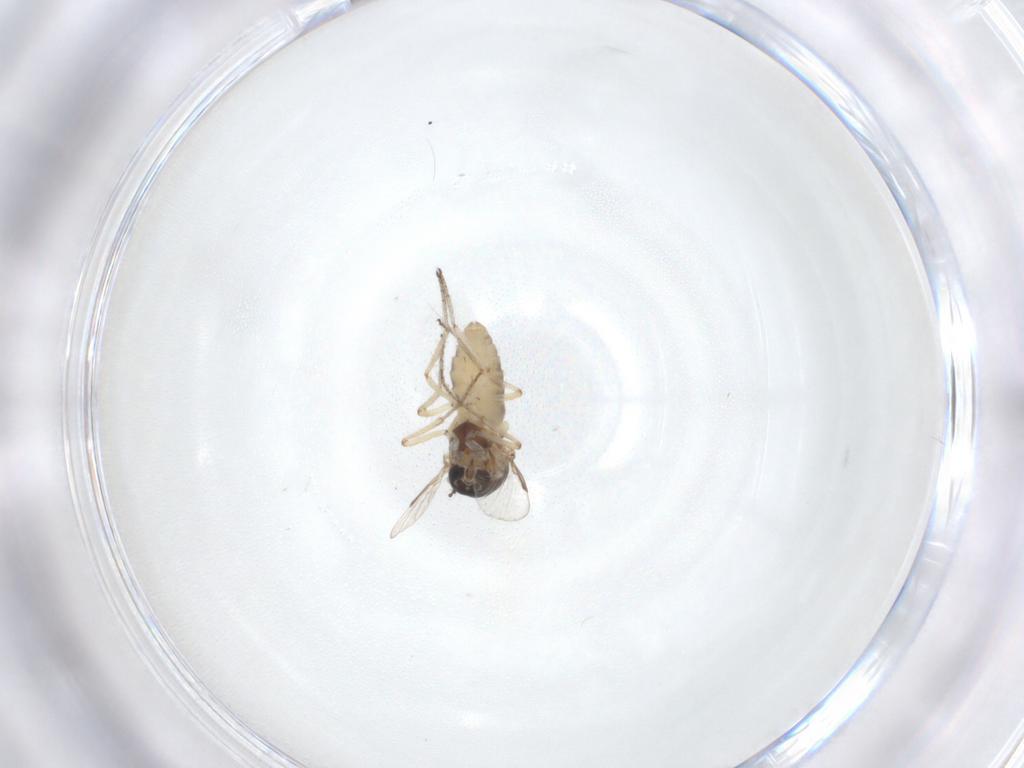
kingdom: Animalia
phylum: Arthropoda
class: Insecta
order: Diptera
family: Ceratopogonidae
